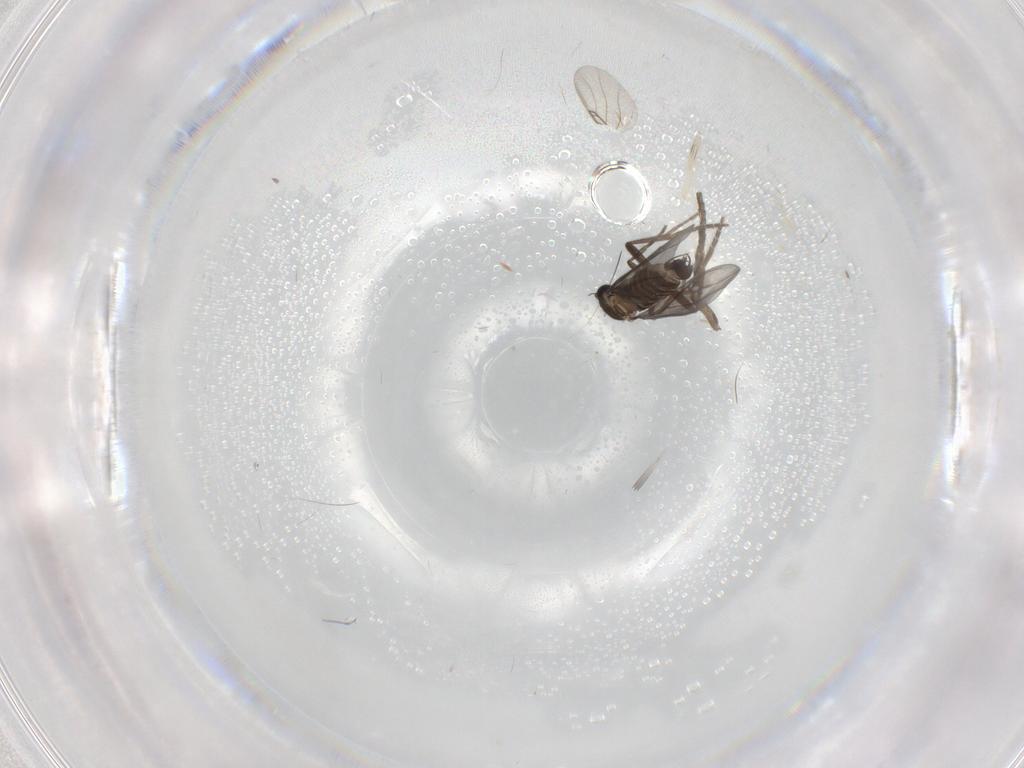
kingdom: Animalia
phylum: Arthropoda
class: Insecta
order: Diptera
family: Phoridae
